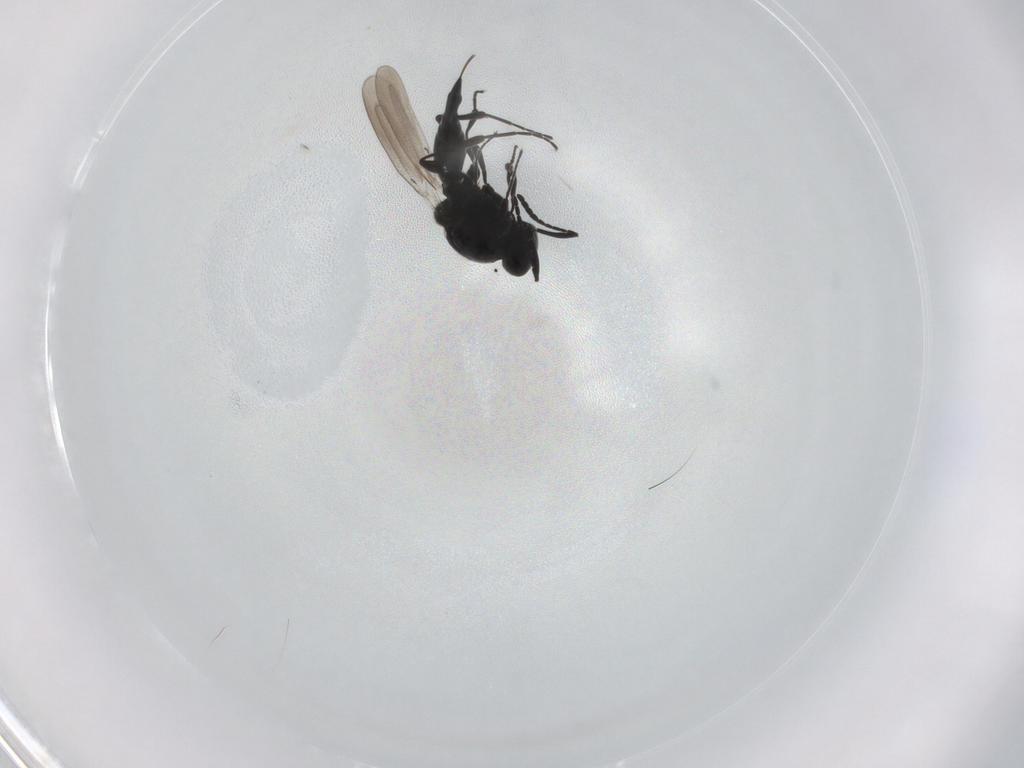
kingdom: Animalia
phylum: Arthropoda
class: Insecta
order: Hymenoptera
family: Platygastridae
